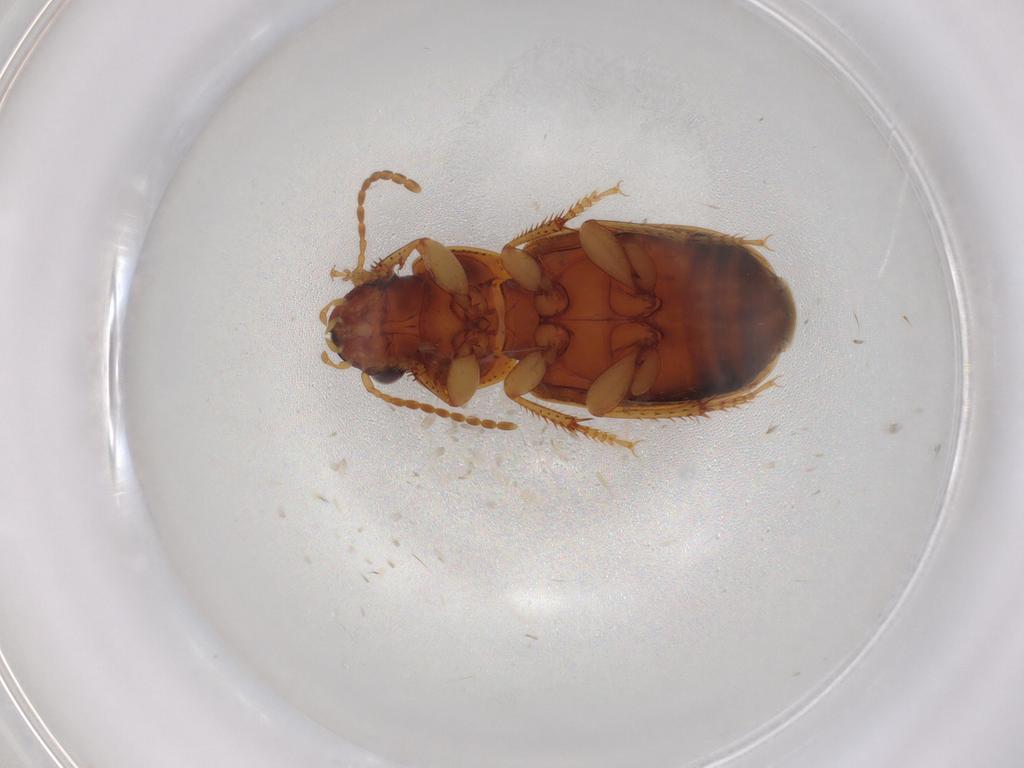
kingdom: Animalia
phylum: Arthropoda
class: Insecta
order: Coleoptera
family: Carabidae
